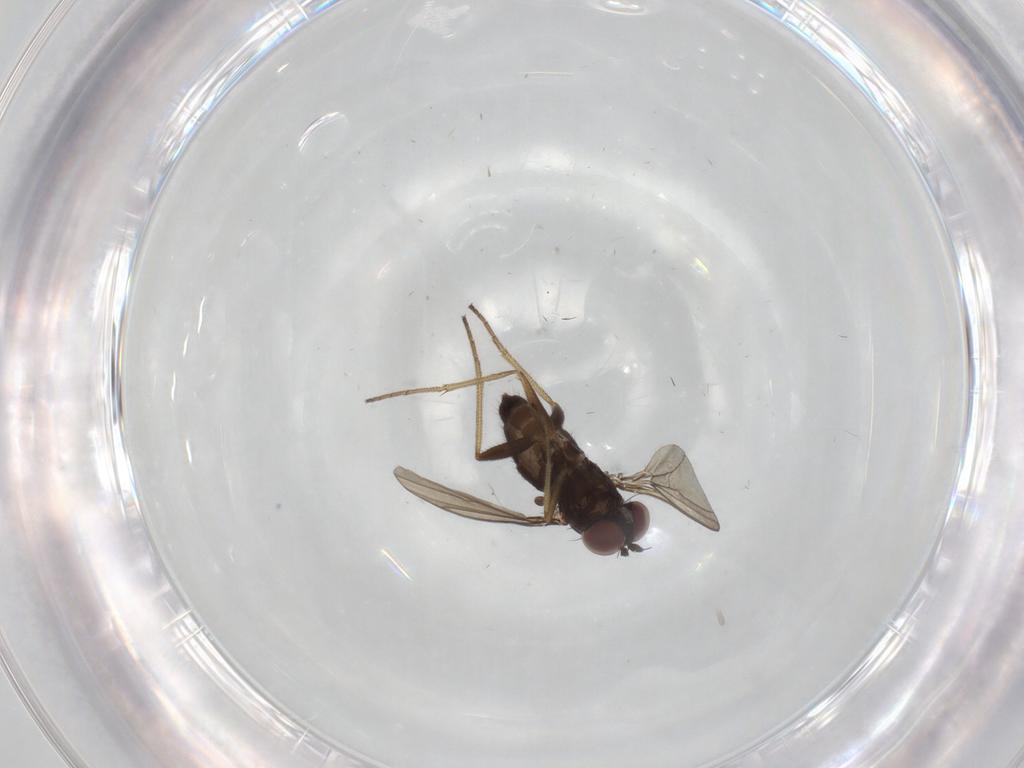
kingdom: Animalia
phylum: Arthropoda
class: Insecta
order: Diptera
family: Dolichopodidae
